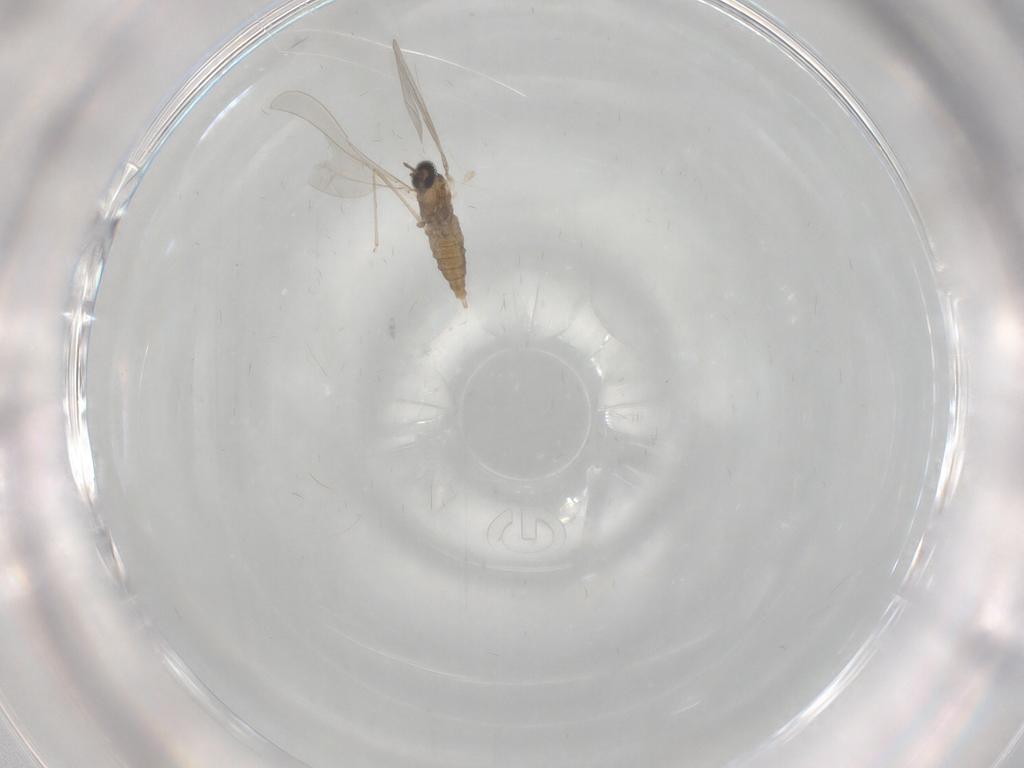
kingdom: Animalia
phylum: Arthropoda
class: Insecta
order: Diptera
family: Cecidomyiidae
